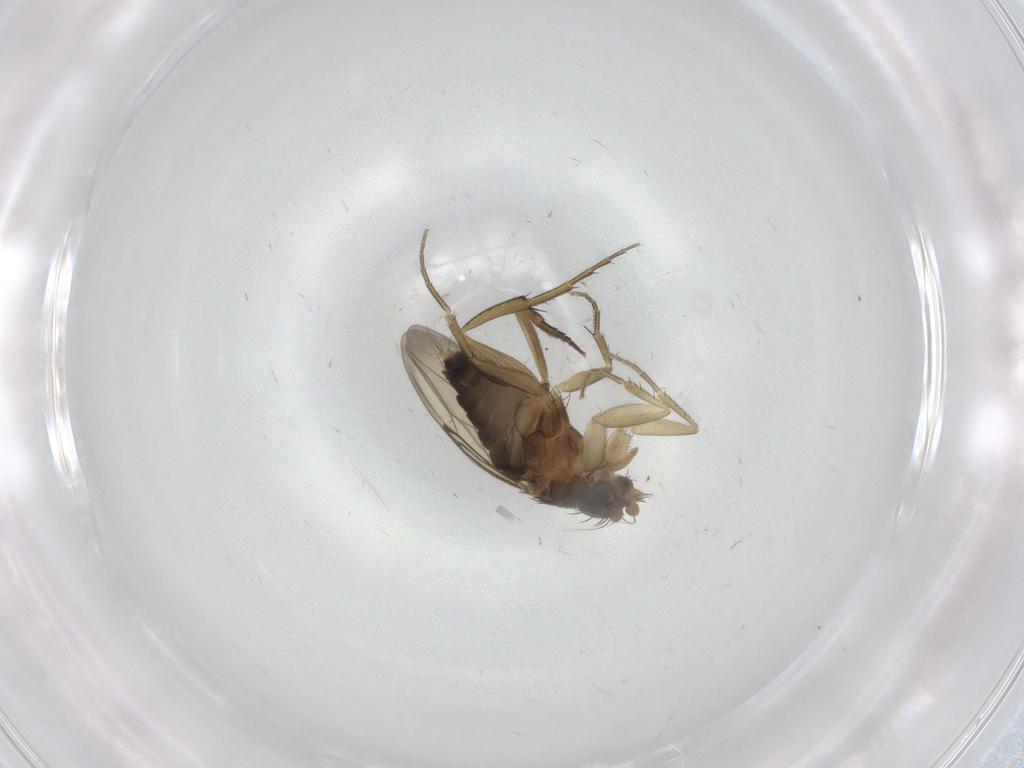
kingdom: Animalia
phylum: Arthropoda
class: Insecta
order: Diptera
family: Phoridae
